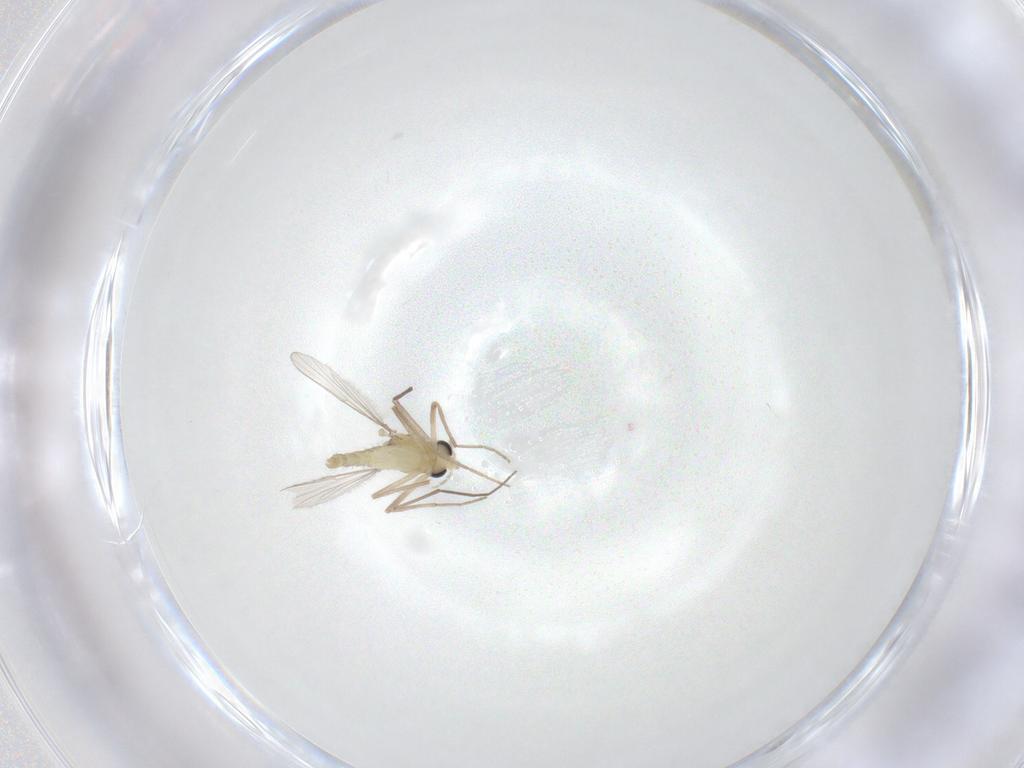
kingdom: Animalia
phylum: Arthropoda
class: Insecta
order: Diptera
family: Chironomidae
